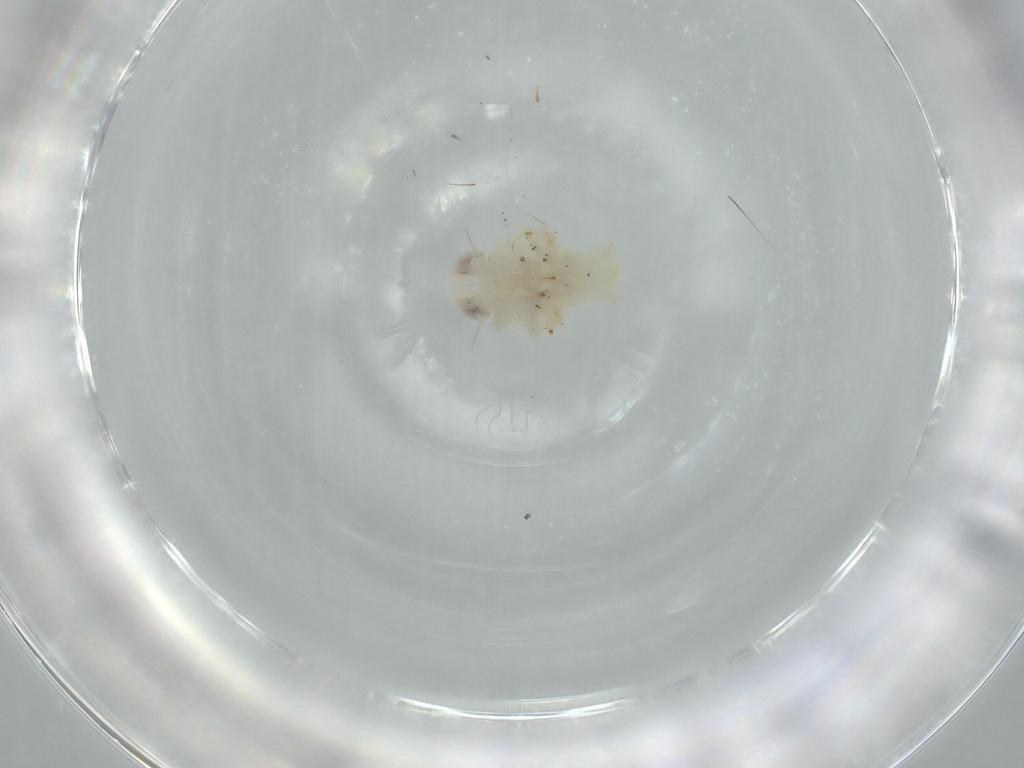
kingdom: Animalia
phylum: Arthropoda
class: Insecta
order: Hemiptera
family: Nogodinidae
